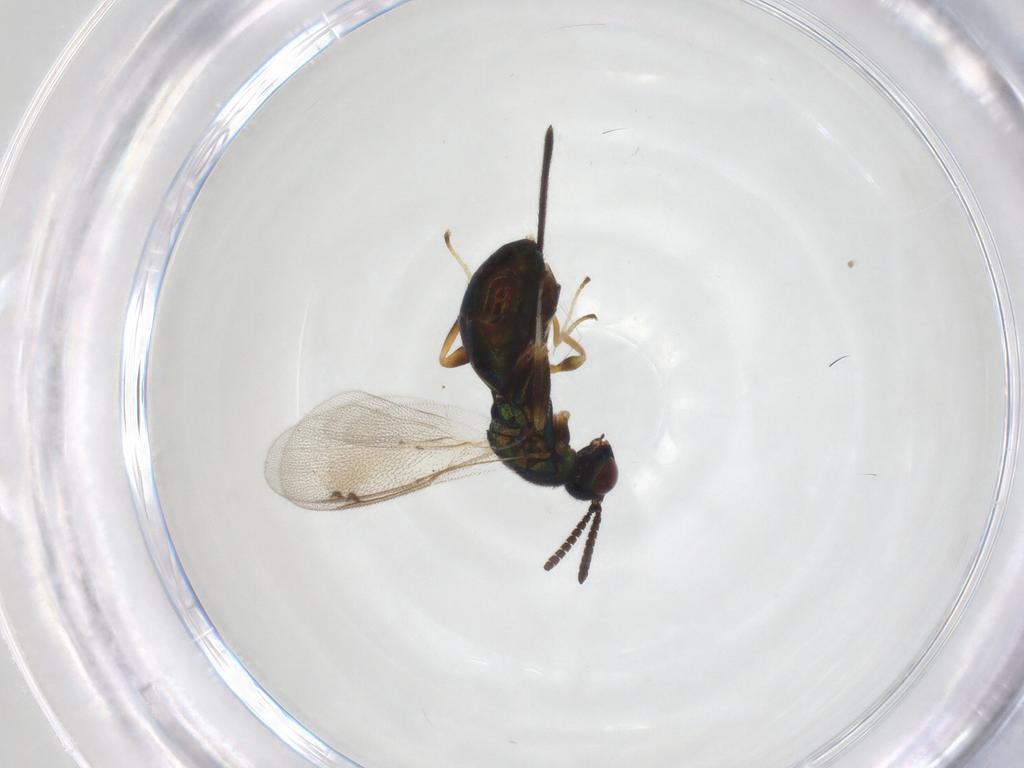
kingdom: Animalia
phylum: Arthropoda
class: Insecta
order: Hymenoptera
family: Torymidae
